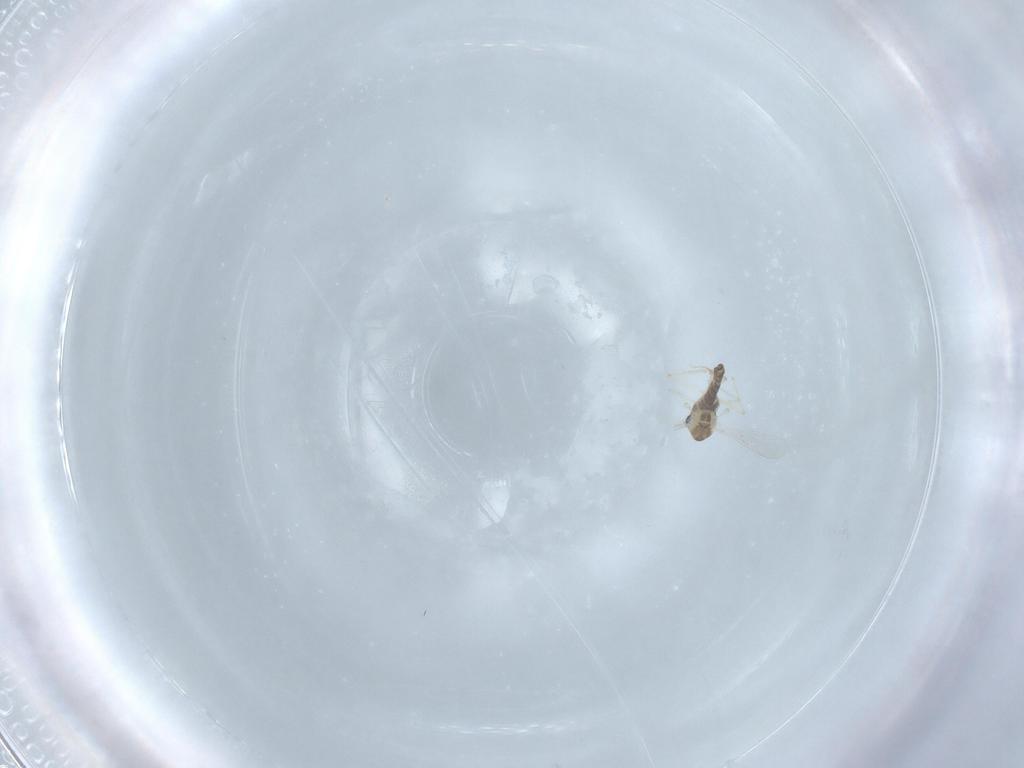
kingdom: Animalia
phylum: Arthropoda
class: Insecta
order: Diptera
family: Chironomidae
